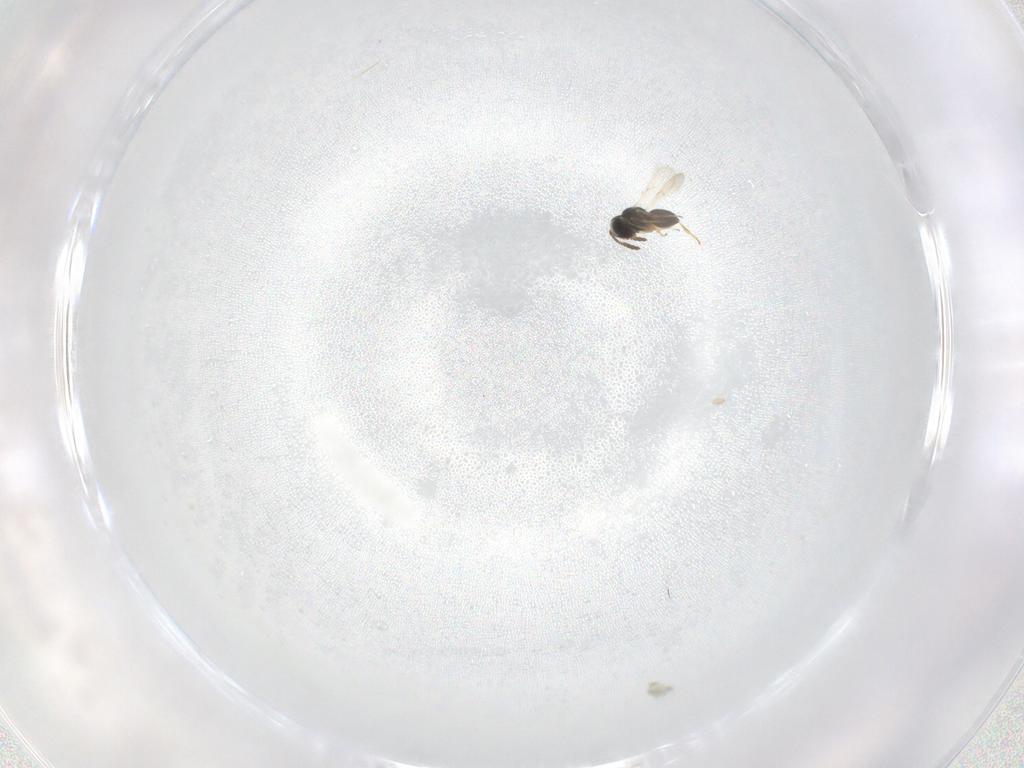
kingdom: Animalia
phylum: Arthropoda
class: Insecta
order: Hymenoptera
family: Scelionidae
